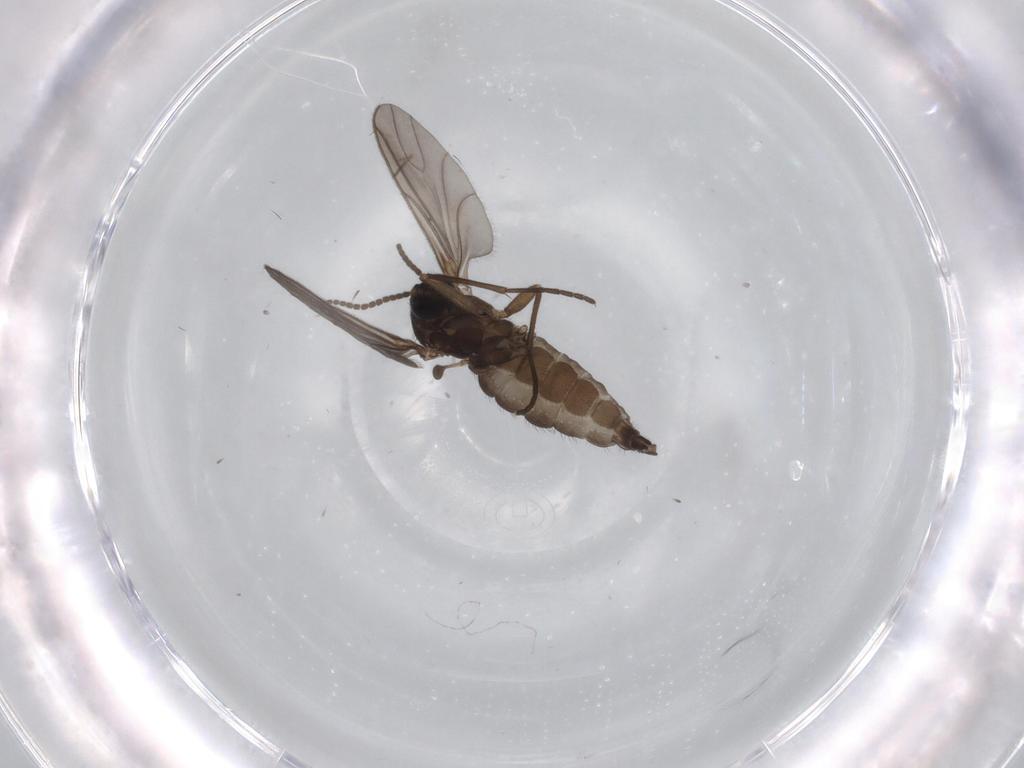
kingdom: Animalia
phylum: Arthropoda
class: Insecta
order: Diptera
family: Sciaridae
